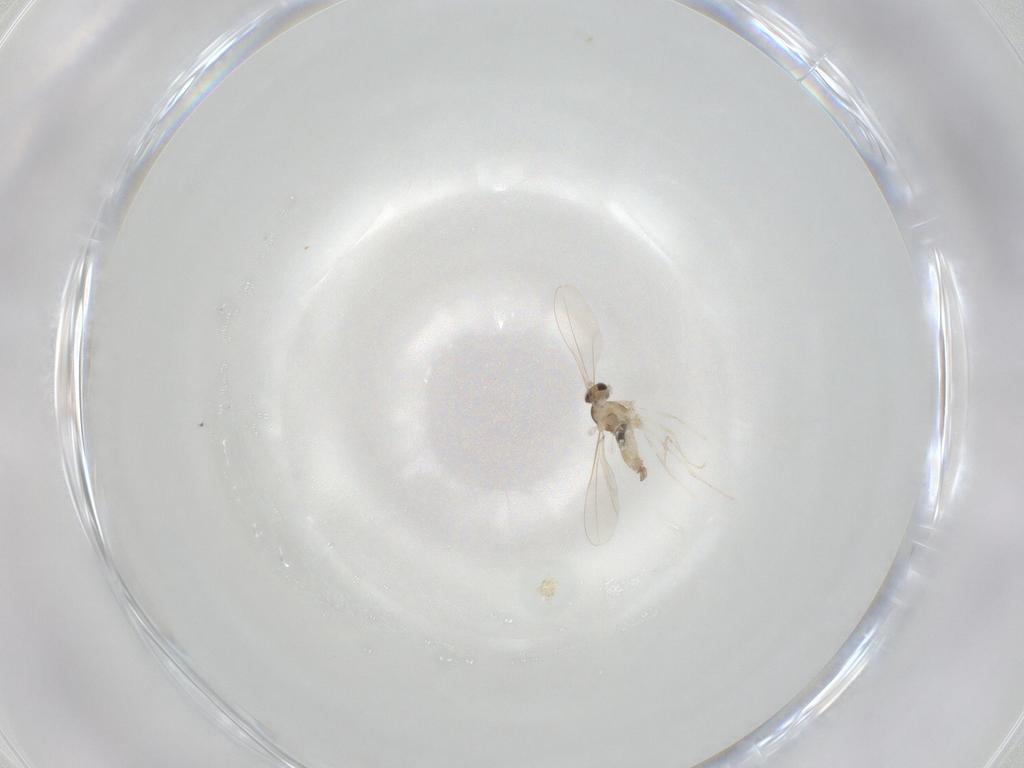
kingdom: Animalia
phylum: Arthropoda
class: Insecta
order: Diptera
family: Cecidomyiidae
